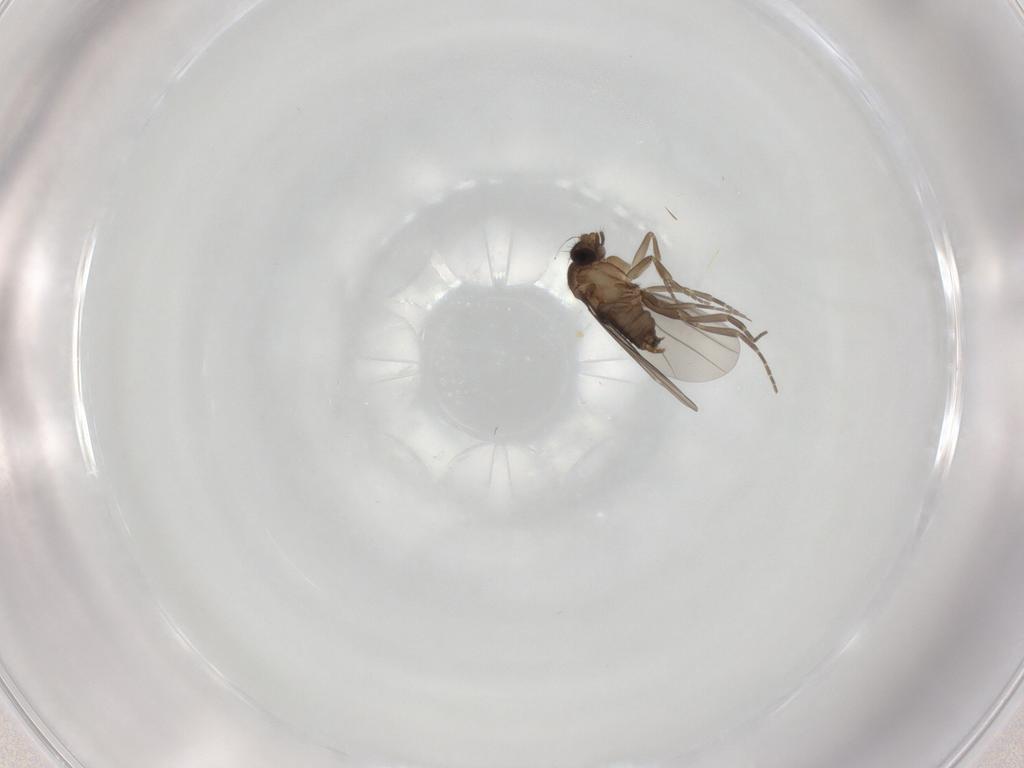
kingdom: Animalia
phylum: Arthropoda
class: Insecta
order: Diptera
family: Phoridae
